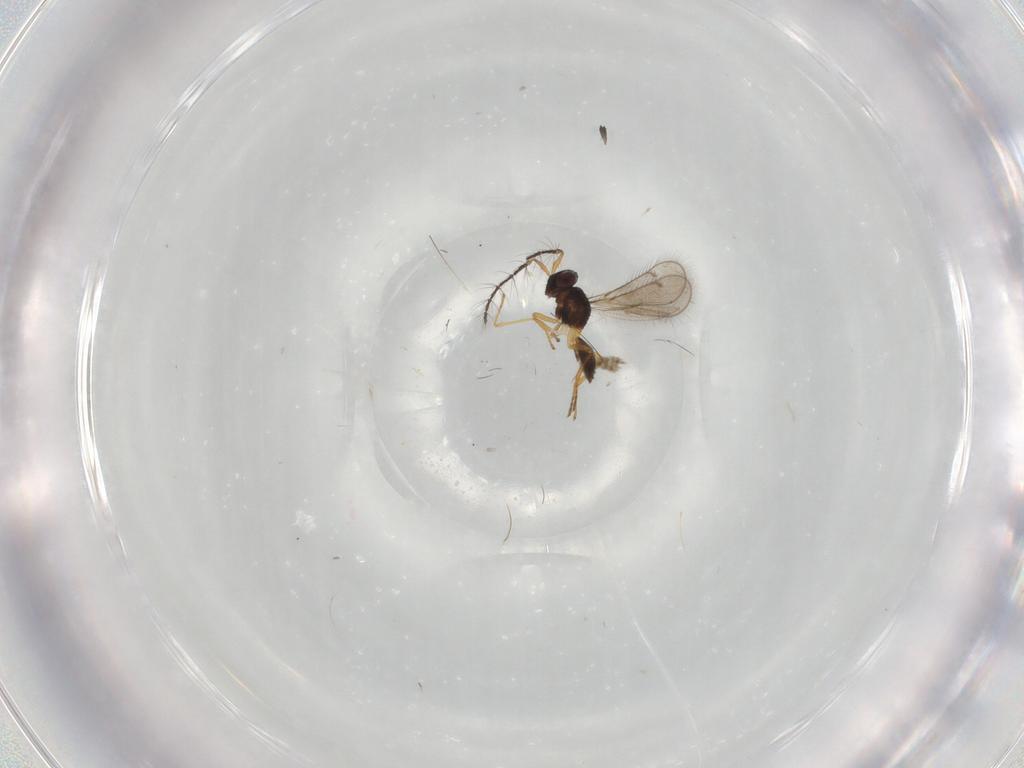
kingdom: Animalia
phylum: Arthropoda
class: Insecta
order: Hymenoptera
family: Eulophidae
